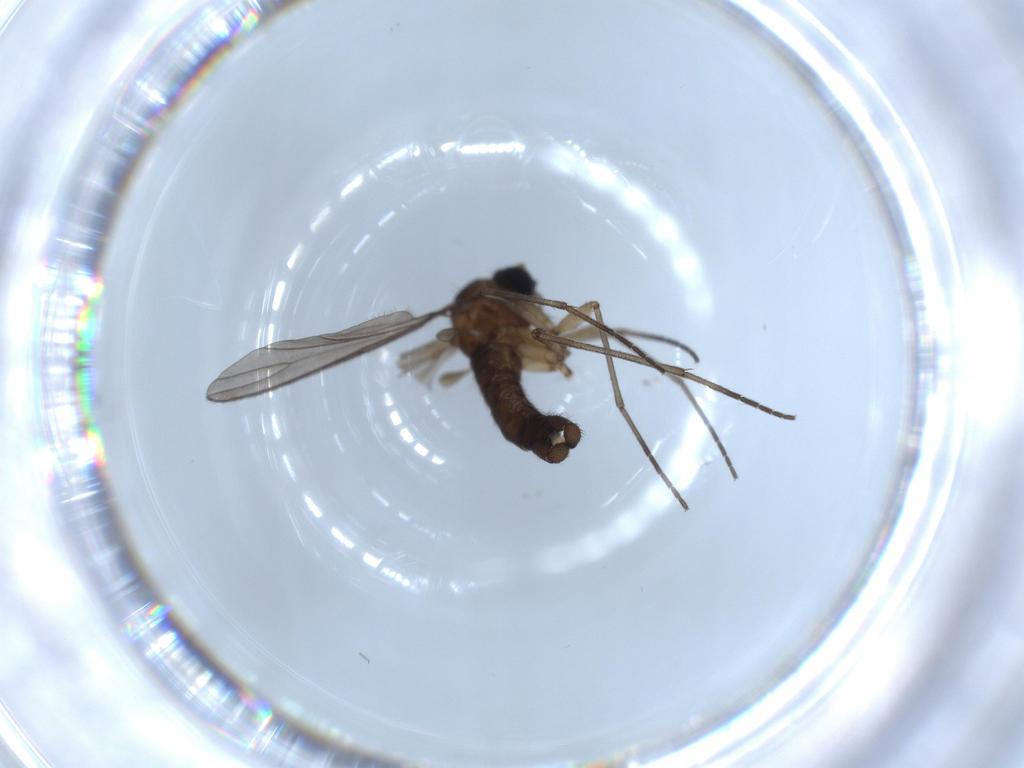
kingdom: Animalia
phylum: Arthropoda
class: Insecta
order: Diptera
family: Sciaridae
